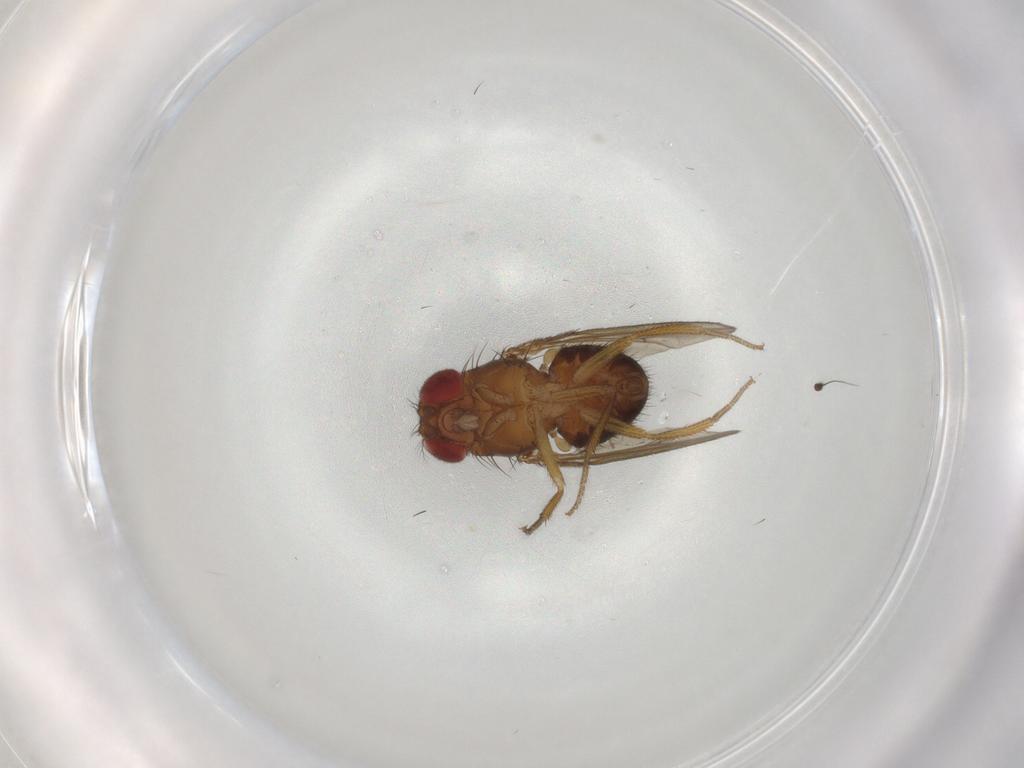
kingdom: Animalia
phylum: Arthropoda
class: Insecta
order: Diptera
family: Drosophilidae
